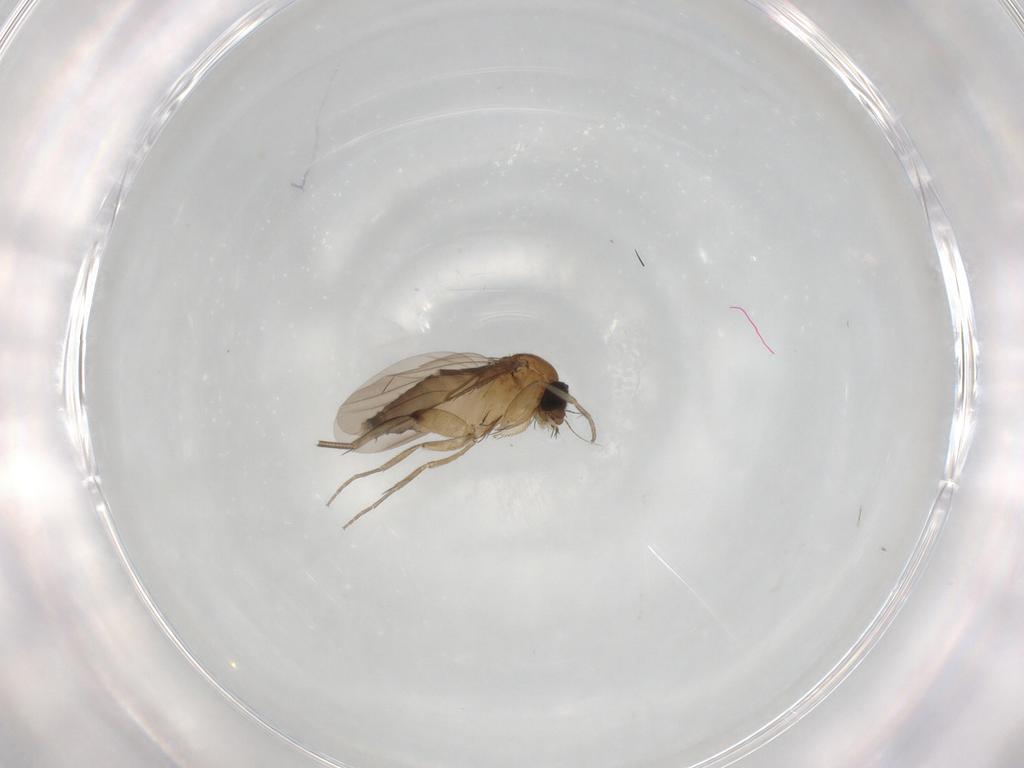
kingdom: Animalia
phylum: Arthropoda
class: Insecta
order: Diptera
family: Phoridae
